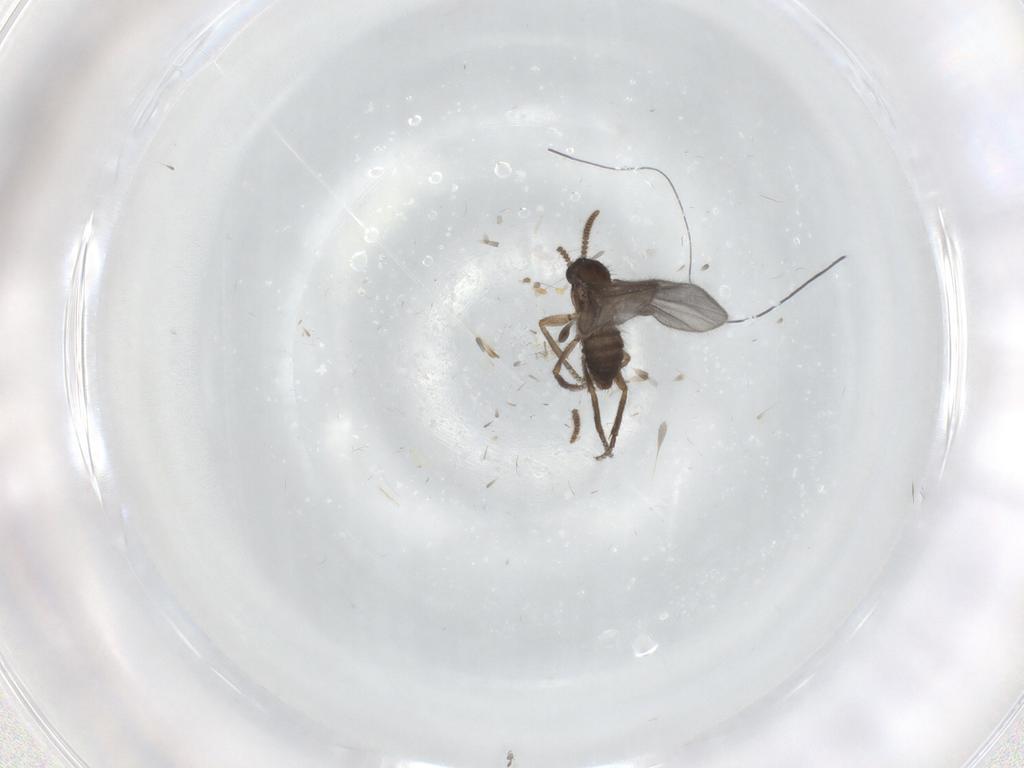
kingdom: Animalia
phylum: Arthropoda
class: Insecta
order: Diptera
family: Sciaridae
